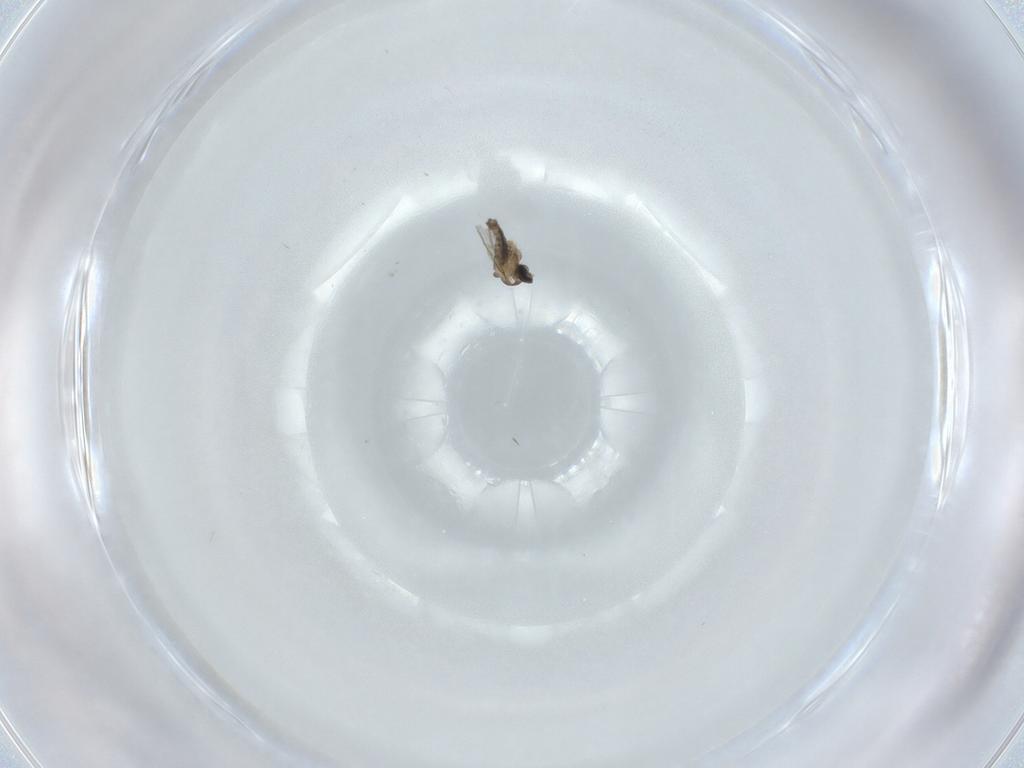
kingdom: Animalia
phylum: Arthropoda
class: Insecta
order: Diptera
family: Cecidomyiidae
